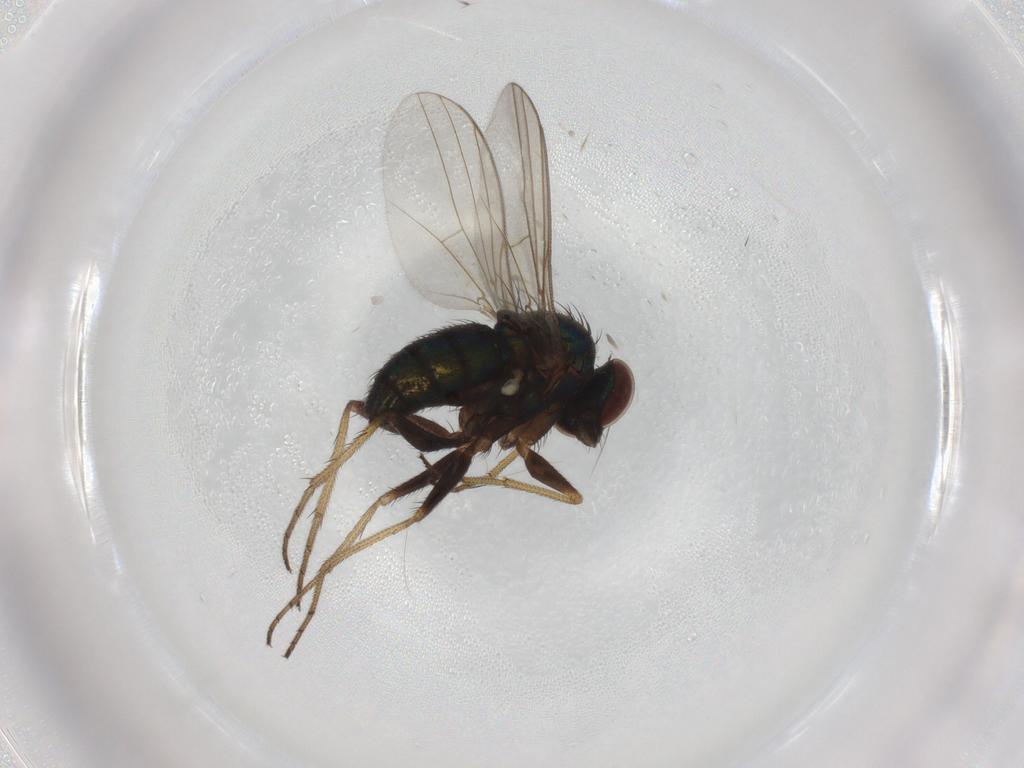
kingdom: Animalia
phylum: Arthropoda
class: Insecta
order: Diptera
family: Dolichopodidae
